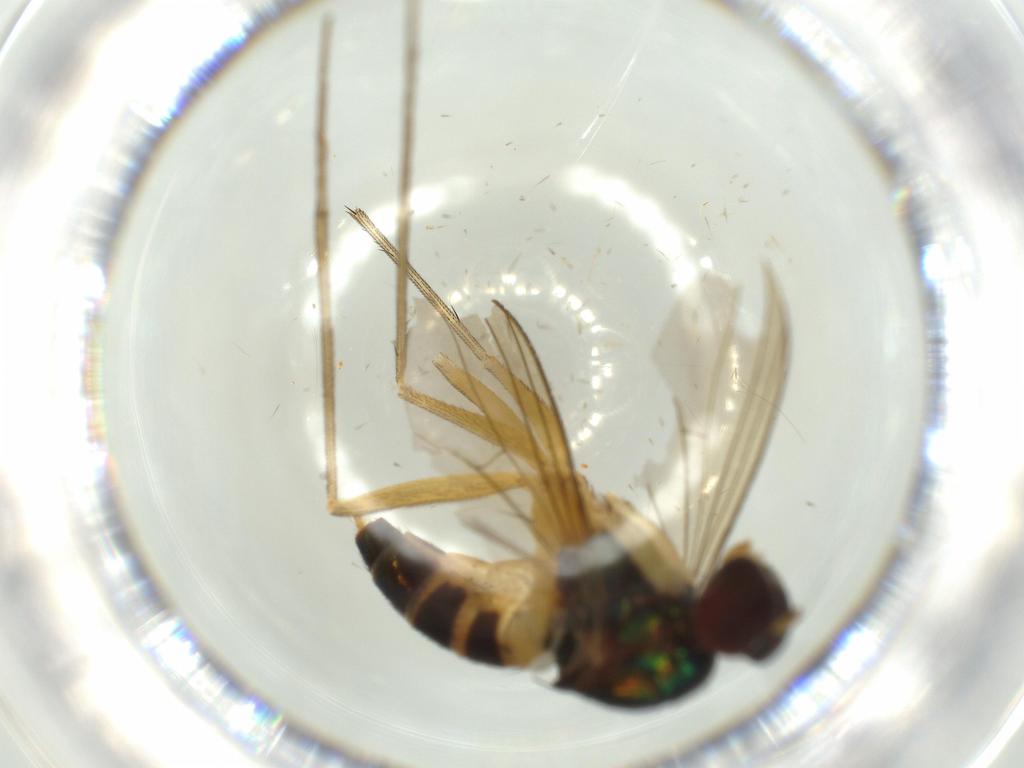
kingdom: Animalia
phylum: Arthropoda
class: Insecta
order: Diptera
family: Dolichopodidae
